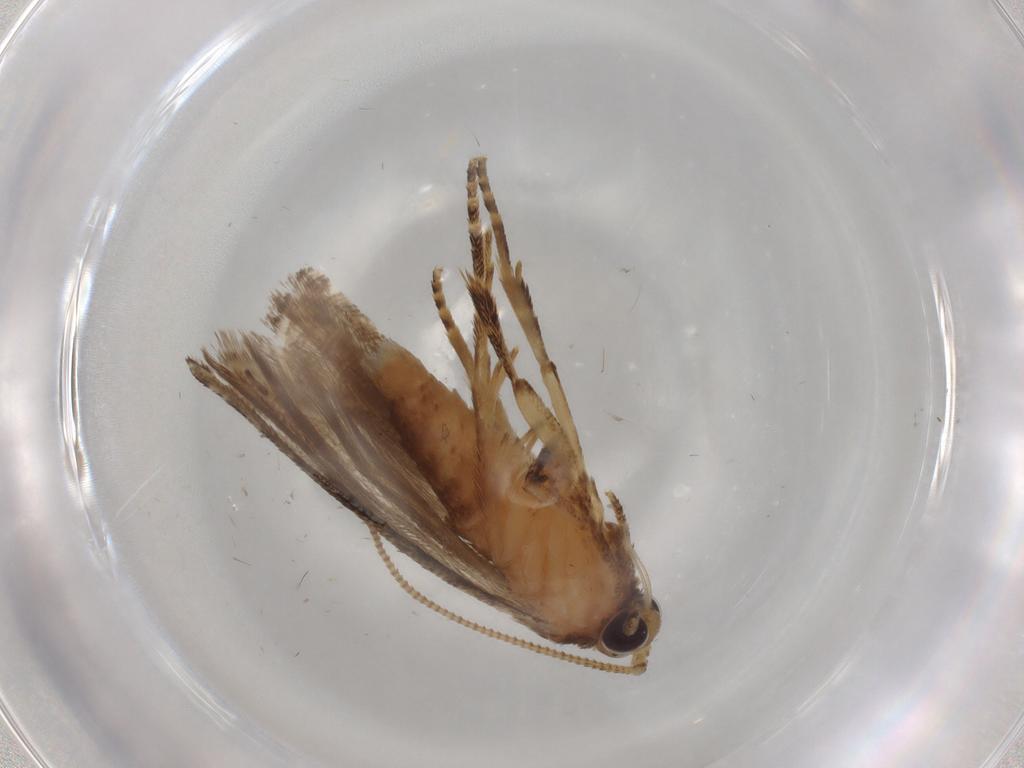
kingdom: Animalia
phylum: Arthropoda
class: Insecta
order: Lepidoptera
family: Tortricidae
